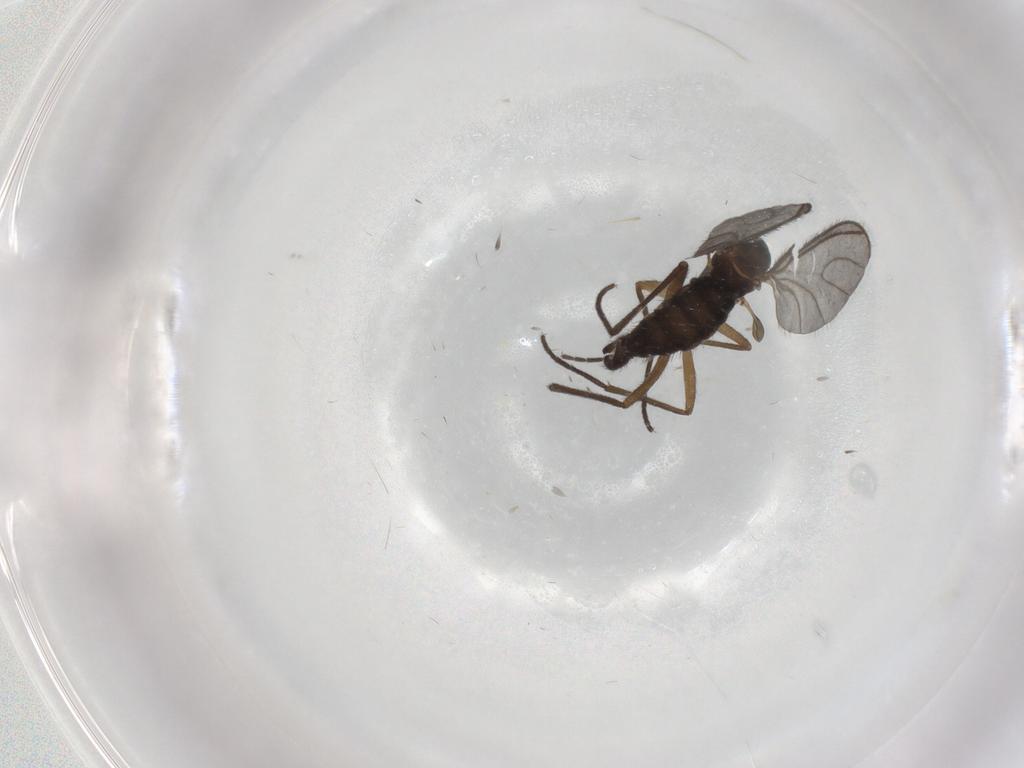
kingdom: Animalia
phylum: Arthropoda
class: Insecta
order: Diptera
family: Sciaridae
